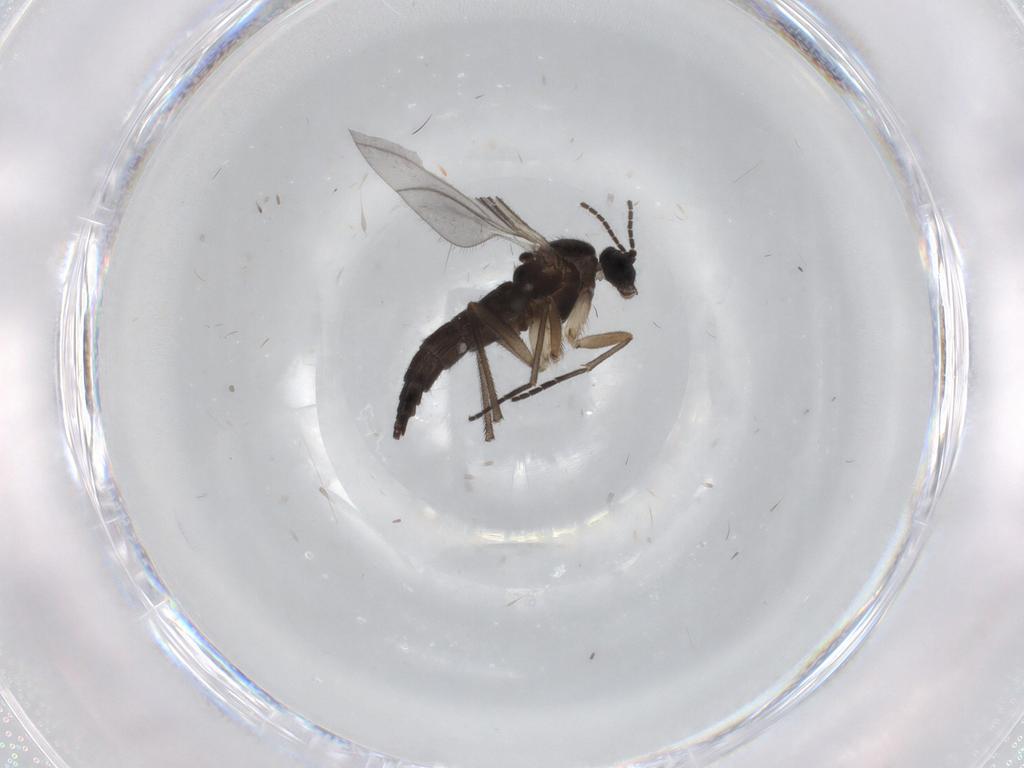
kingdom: Animalia
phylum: Arthropoda
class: Insecta
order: Diptera
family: Sciaridae
